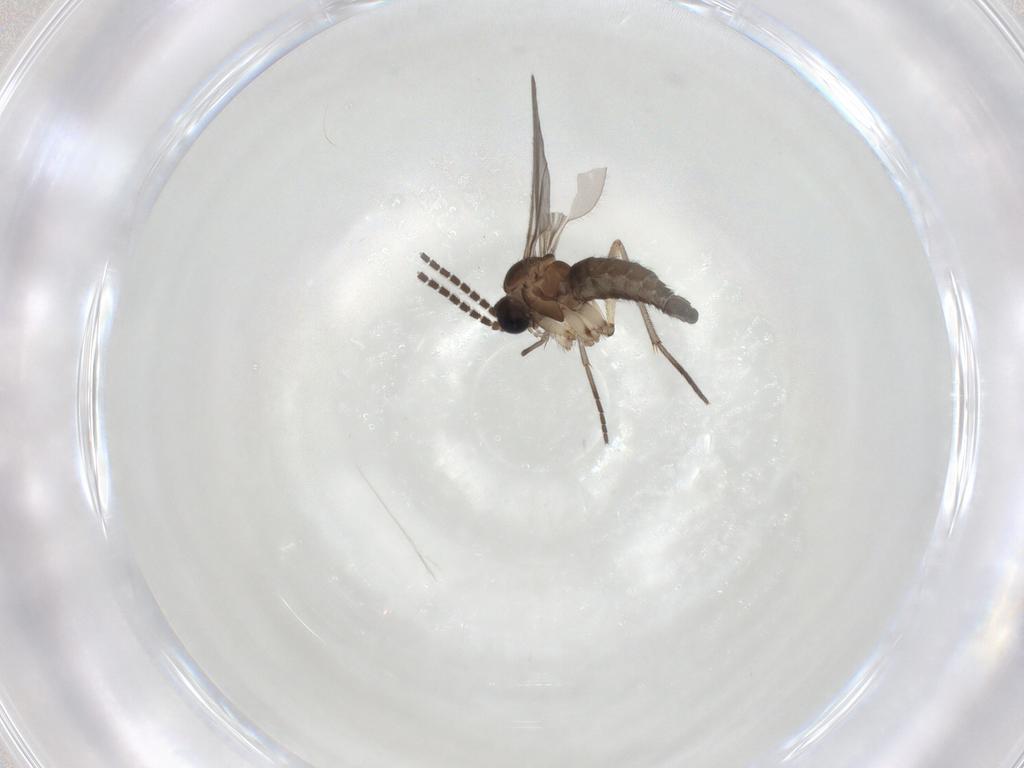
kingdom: Animalia
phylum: Arthropoda
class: Insecta
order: Diptera
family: Sciaridae
